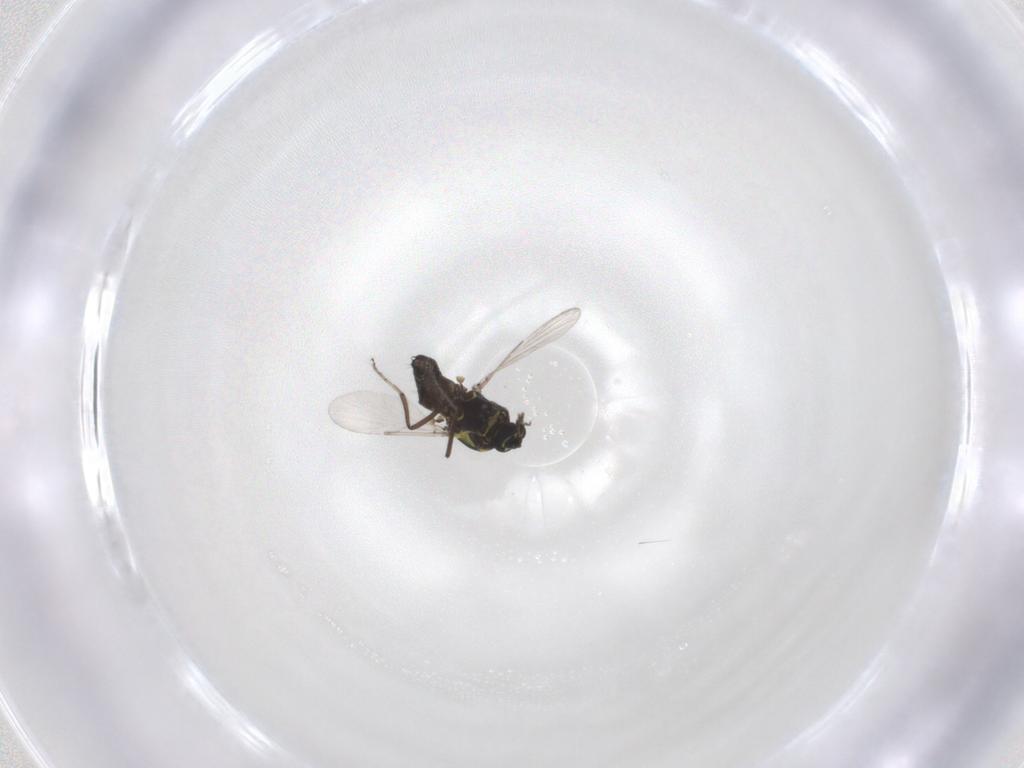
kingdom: Animalia
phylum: Arthropoda
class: Insecta
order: Diptera
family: Ceratopogonidae
